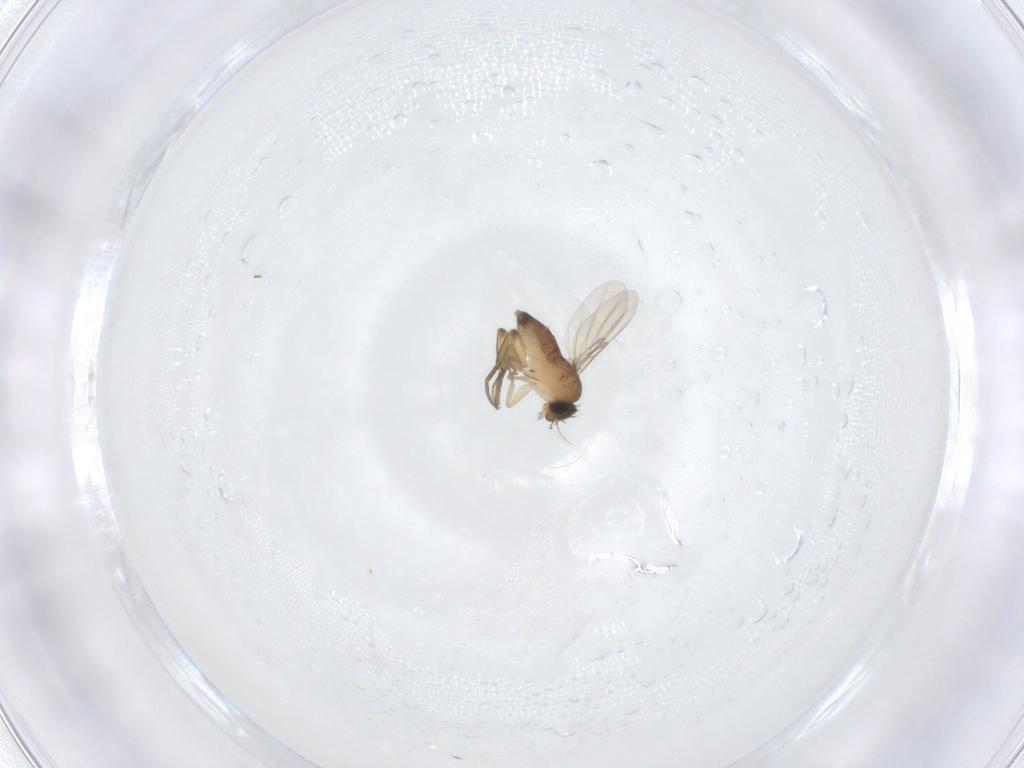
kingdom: Animalia
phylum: Arthropoda
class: Insecta
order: Diptera
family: Phoridae
